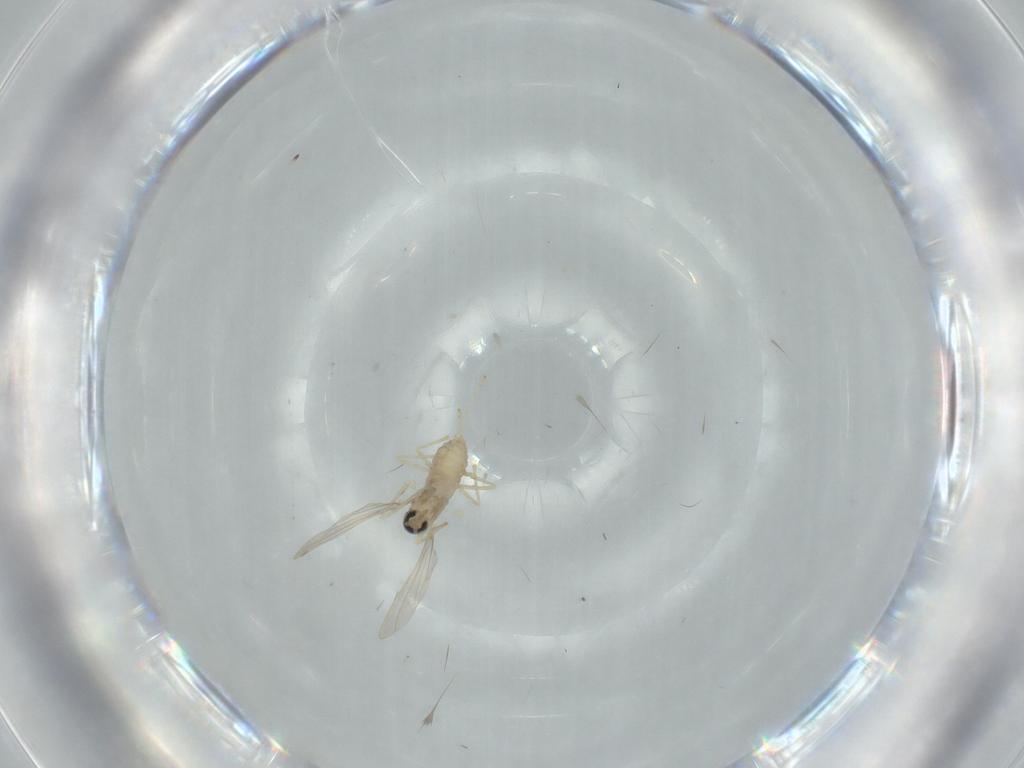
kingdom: Animalia
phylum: Arthropoda
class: Insecta
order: Diptera
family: Cecidomyiidae
